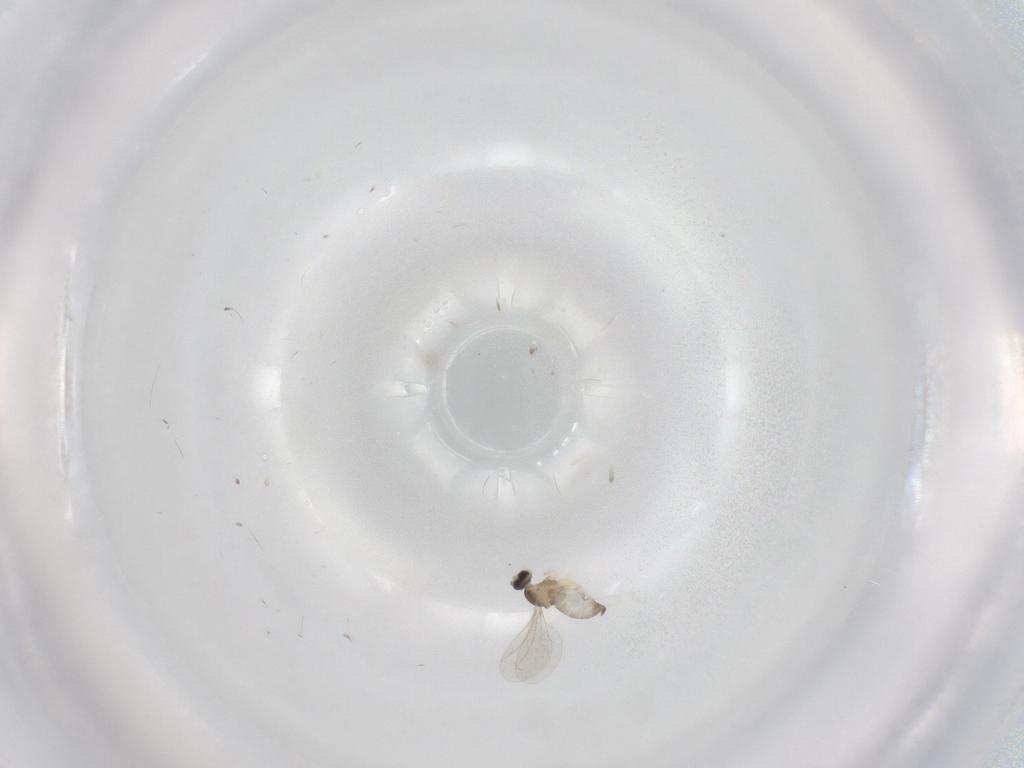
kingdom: Animalia
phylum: Arthropoda
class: Insecta
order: Diptera
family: Cecidomyiidae
